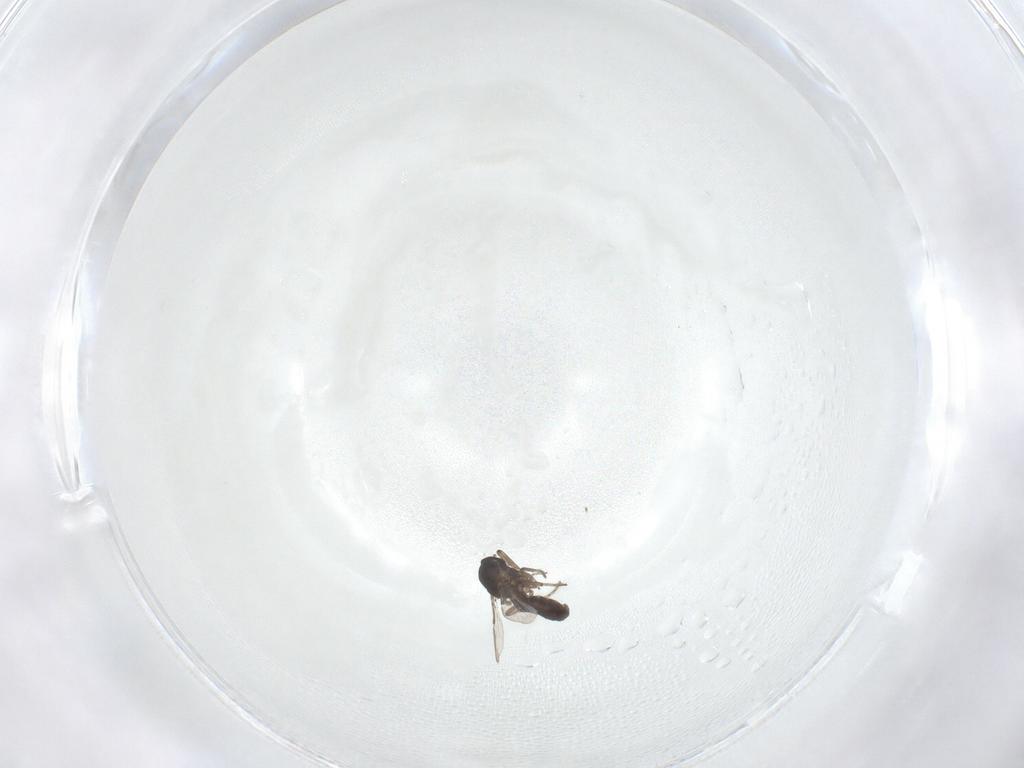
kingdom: Animalia
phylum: Arthropoda
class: Insecta
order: Diptera
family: Ceratopogonidae
